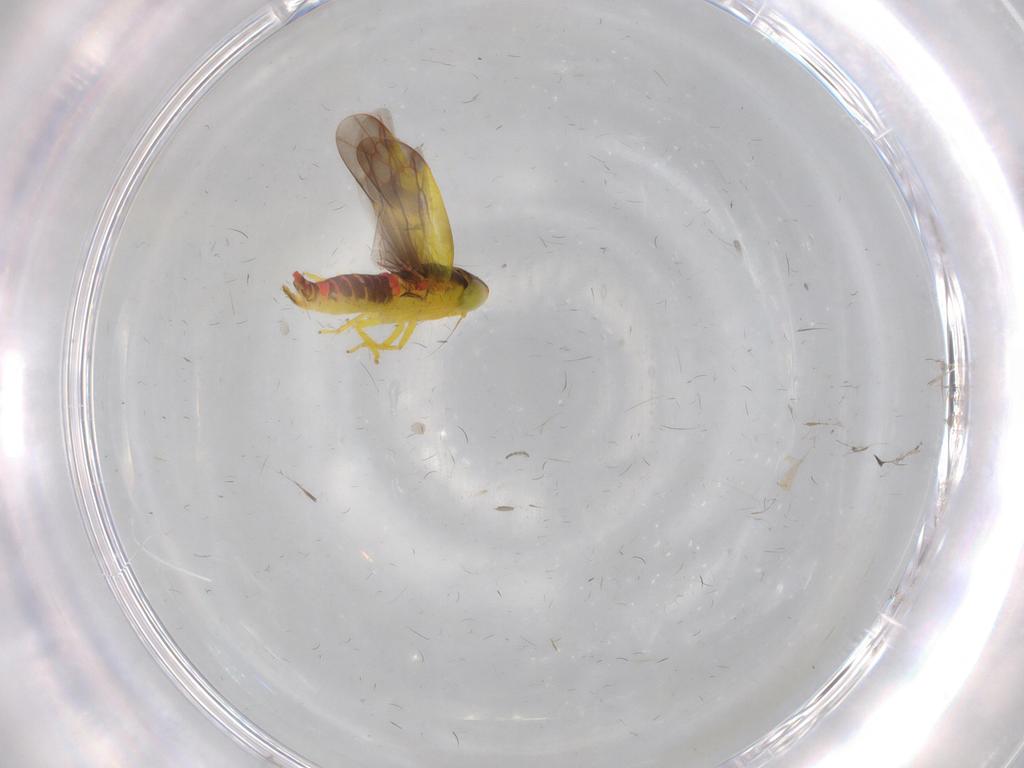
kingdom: Animalia
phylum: Arthropoda
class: Insecta
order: Hemiptera
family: Cicadellidae
